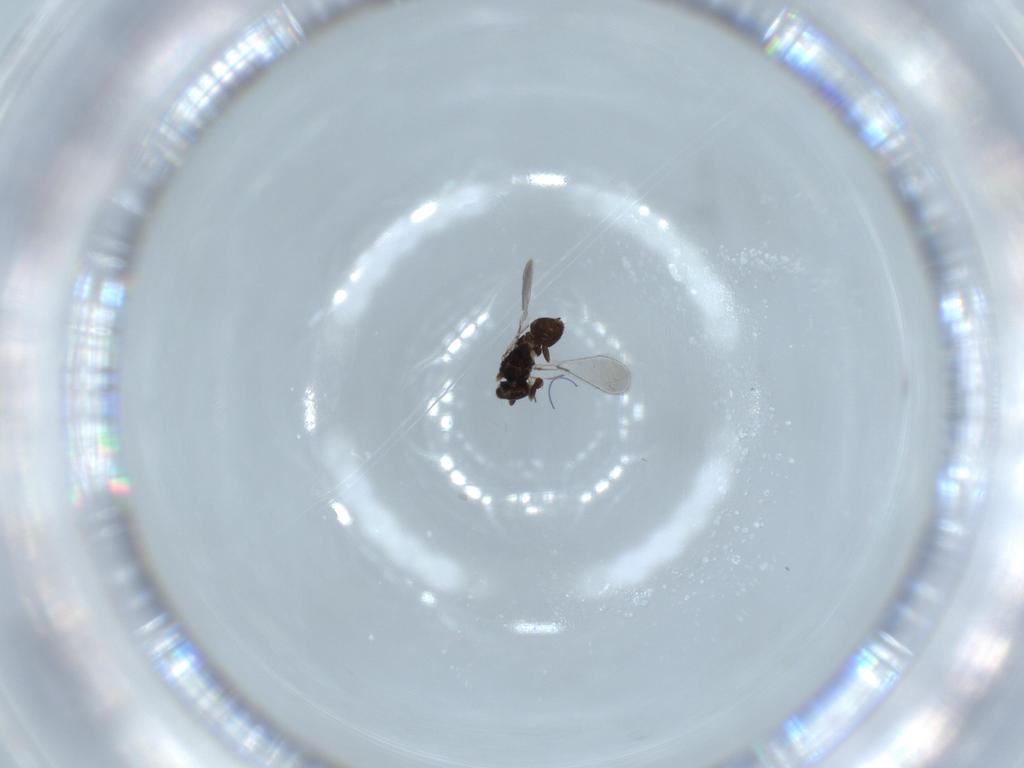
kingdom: Animalia
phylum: Arthropoda
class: Insecta
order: Hymenoptera
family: Mymaridae
